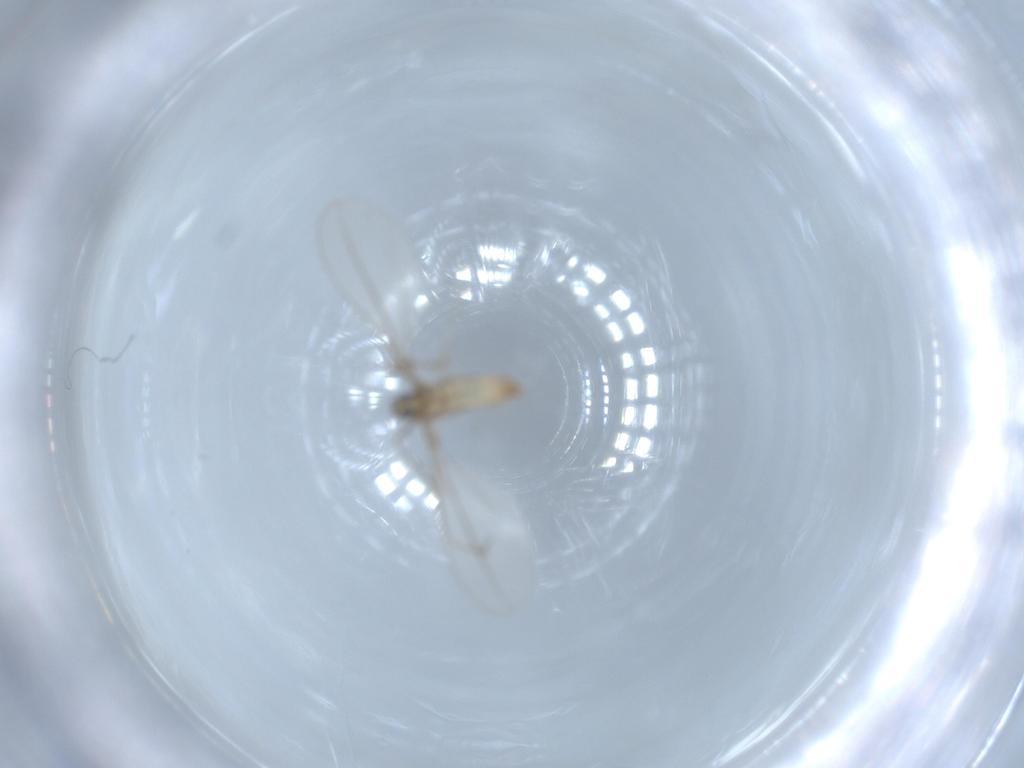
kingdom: Animalia
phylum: Arthropoda
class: Insecta
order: Diptera
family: Cecidomyiidae
